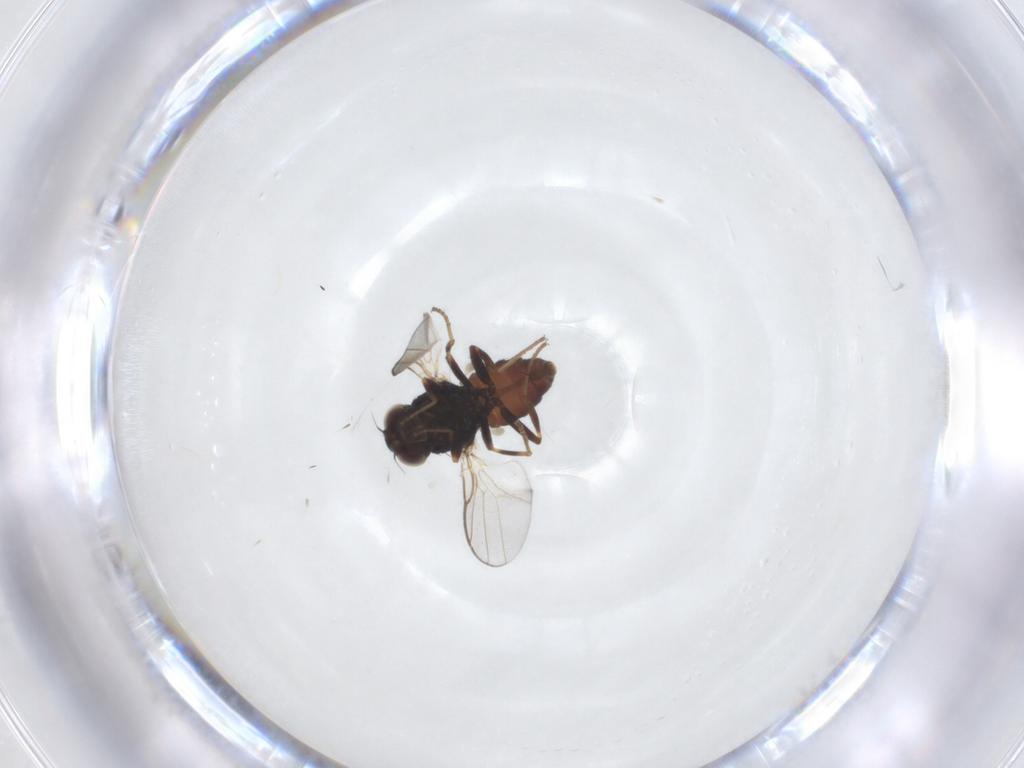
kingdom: Animalia
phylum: Arthropoda
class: Insecta
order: Diptera
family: Chloropidae
